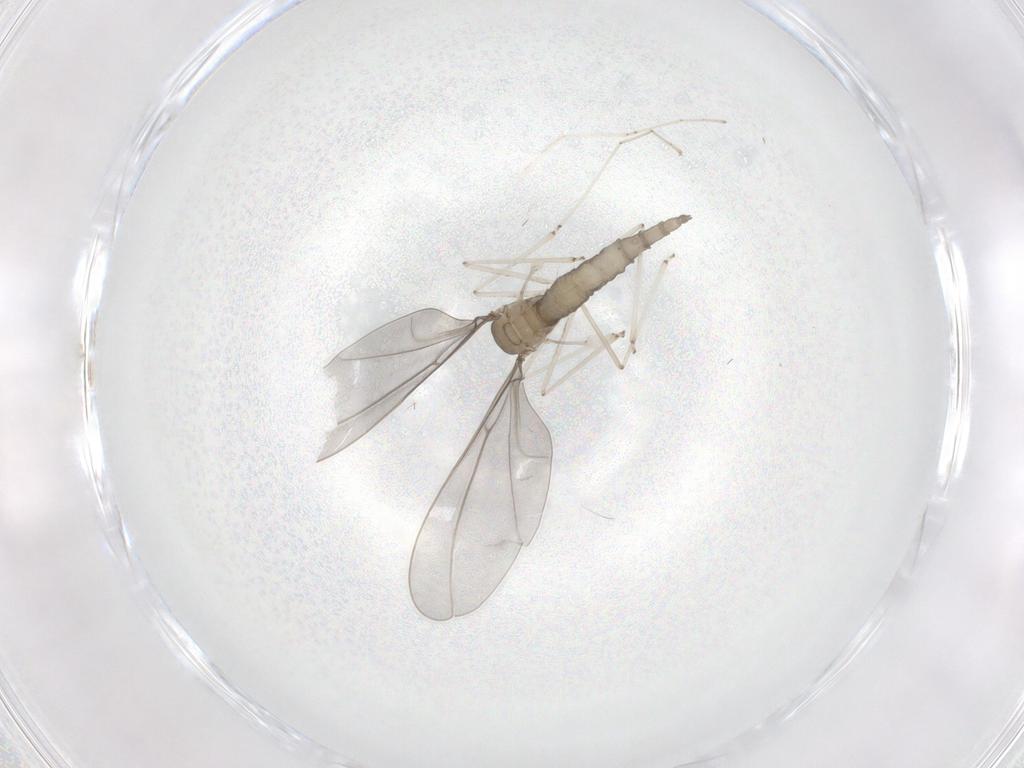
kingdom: Animalia
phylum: Arthropoda
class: Insecta
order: Diptera
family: Cecidomyiidae
